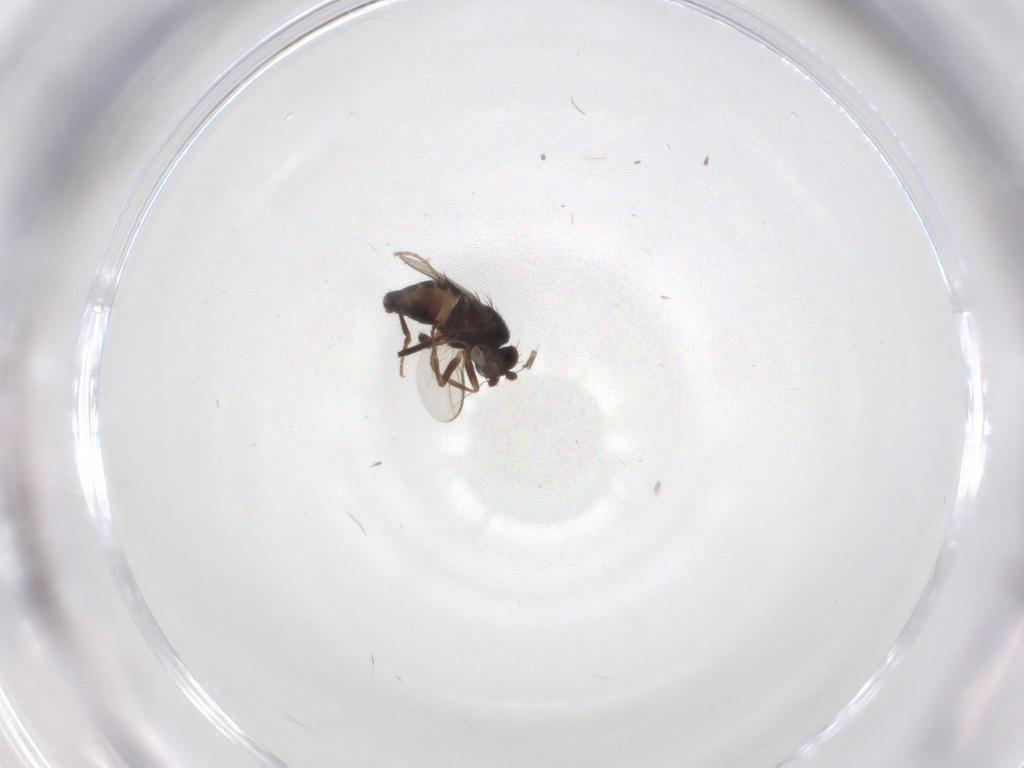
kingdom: Animalia
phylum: Arthropoda
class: Insecta
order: Diptera
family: Sphaeroceridae
